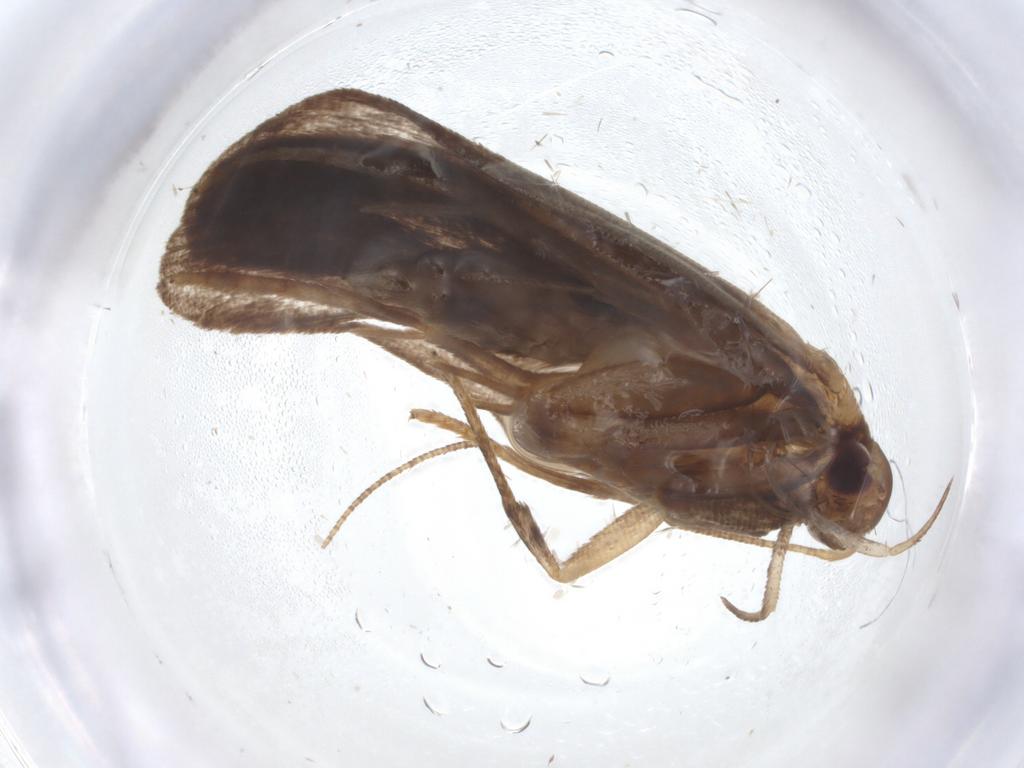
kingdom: Animalia
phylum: Arthropoda
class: Insecta
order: Lepidoptera
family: Gelechiidae
